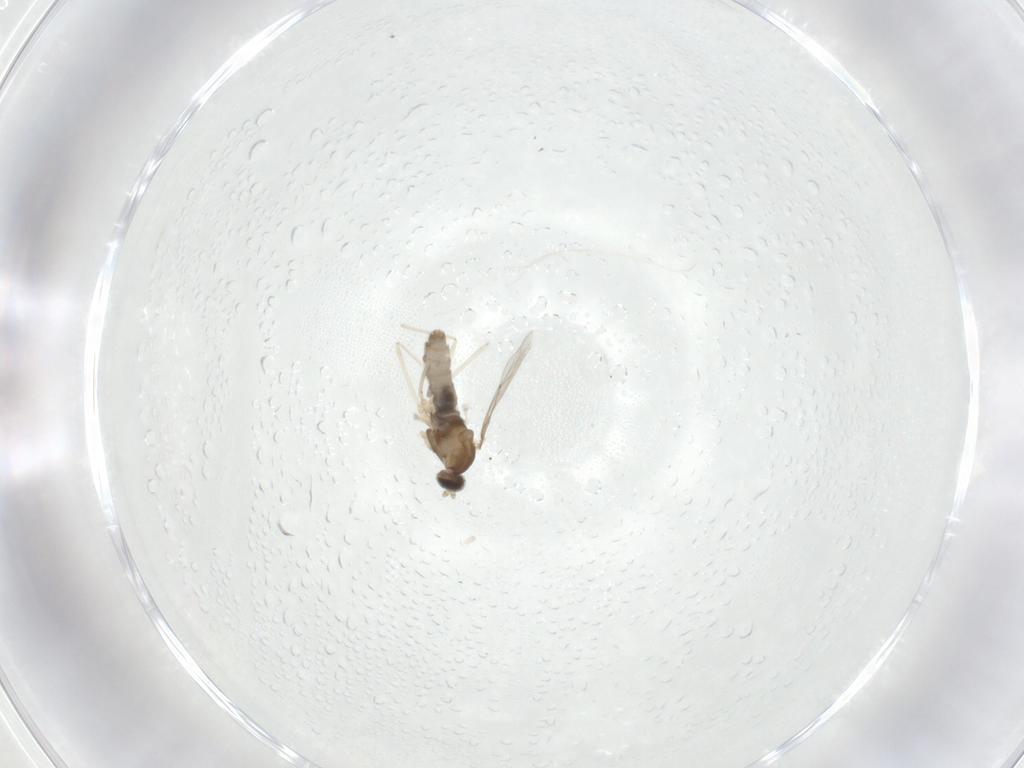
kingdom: Animalia
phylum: Arthropoda
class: Insecta
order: Diptera
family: Cecidomyiidae
